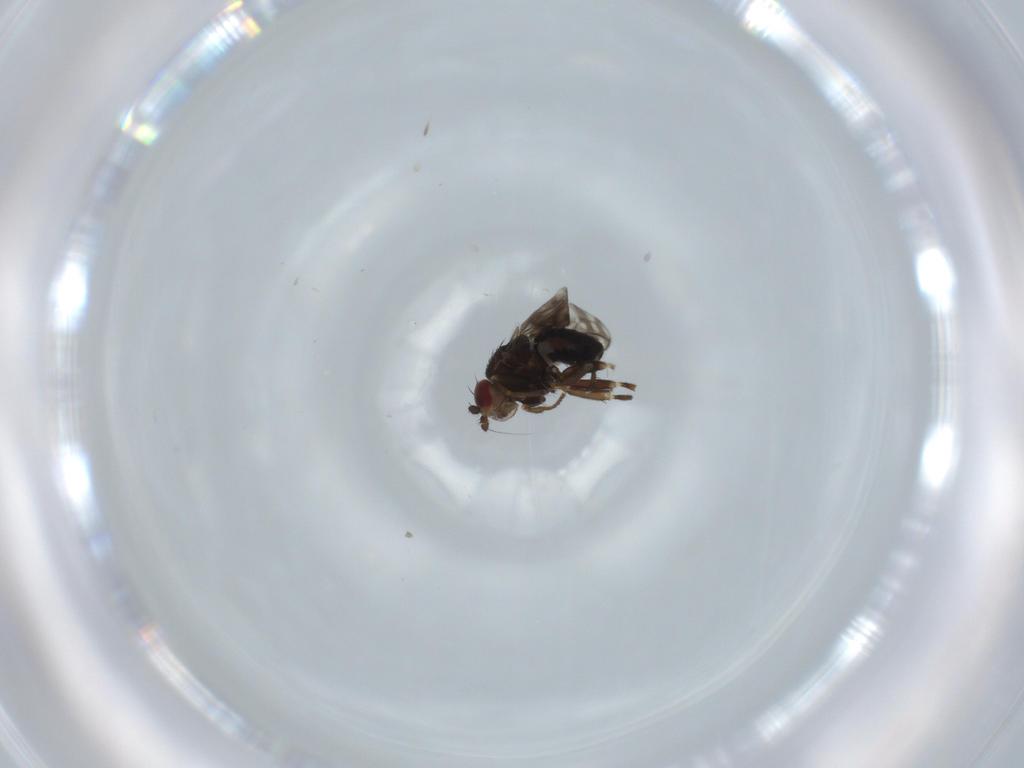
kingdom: Animalia
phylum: Arthropoda
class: Insecta
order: Diptera
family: Sphaeroceridae
